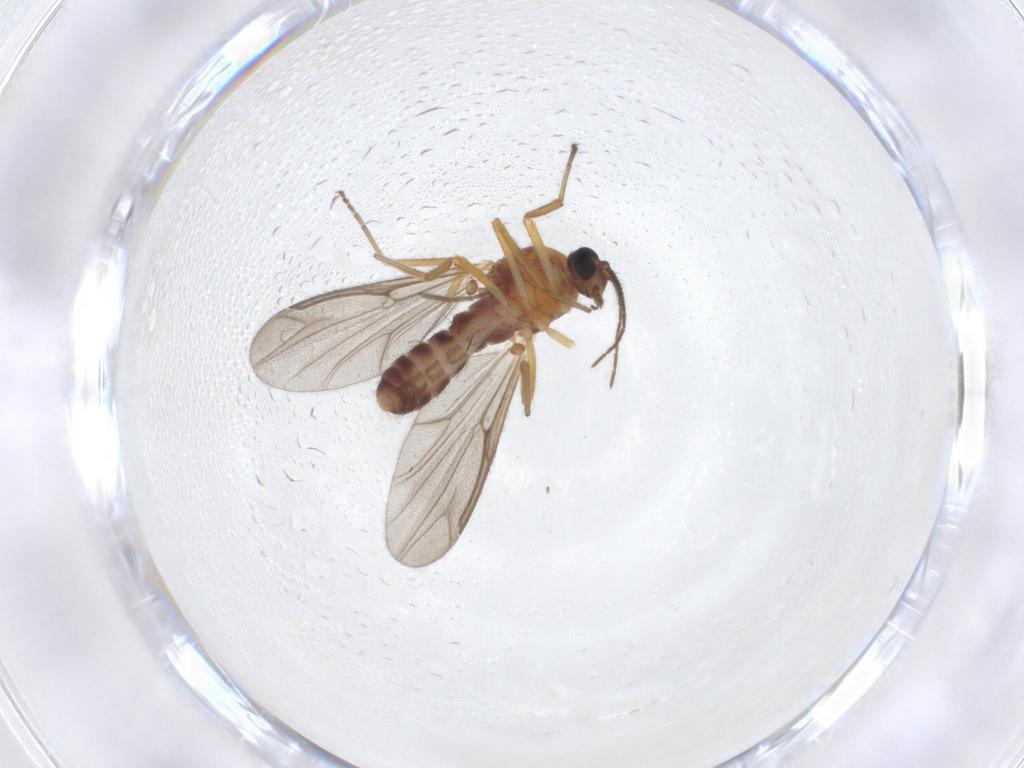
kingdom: Animalia
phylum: Arthropoda
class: Insecta
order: Diptera
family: Ceratopogonidae
